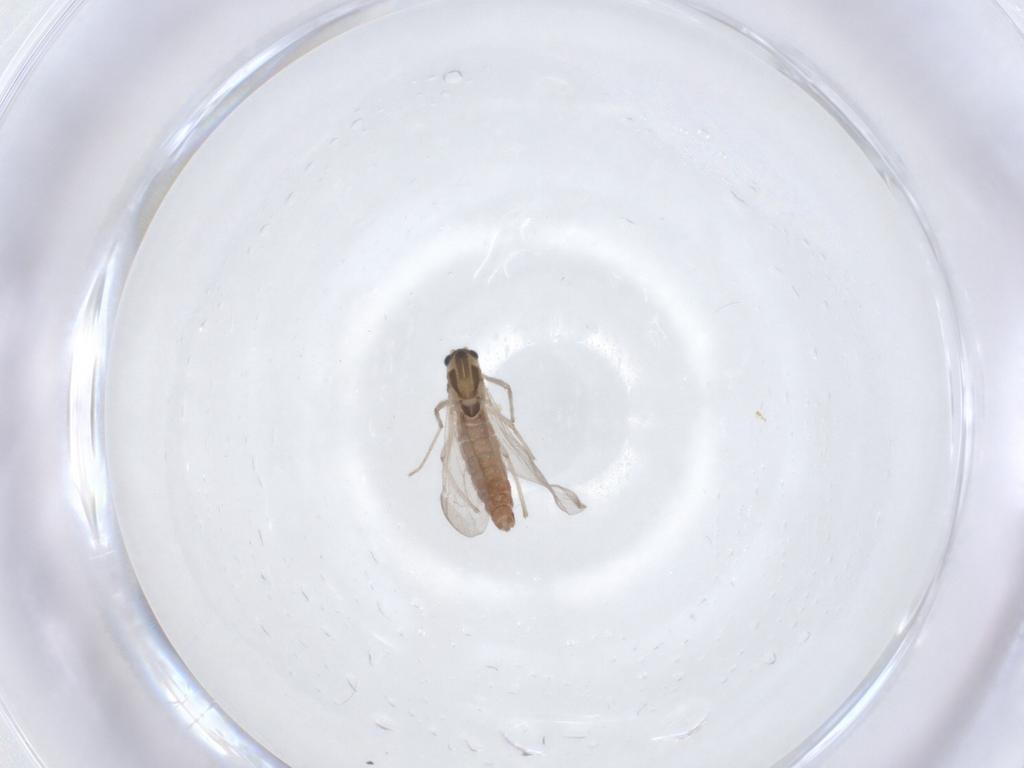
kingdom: Animalia
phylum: Arthropoda
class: Insecta
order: Diptera
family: Chironomidae
